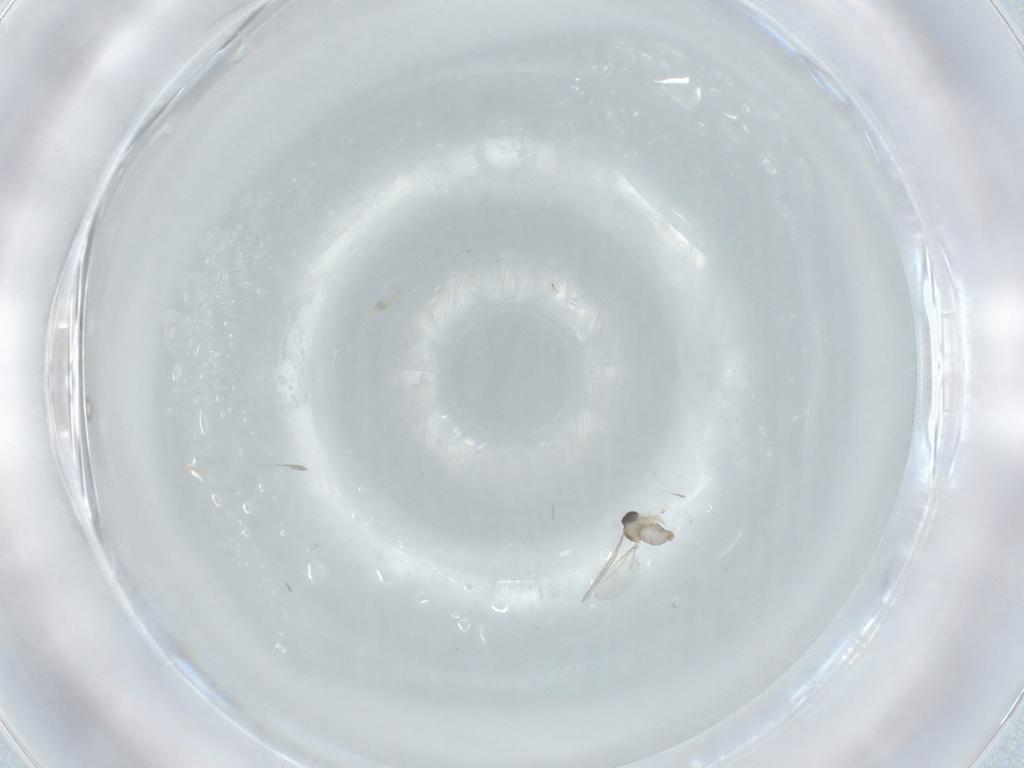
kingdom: Animalia
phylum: Arthropoda
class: Insecta
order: Diptera
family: Cecidomyiidae
